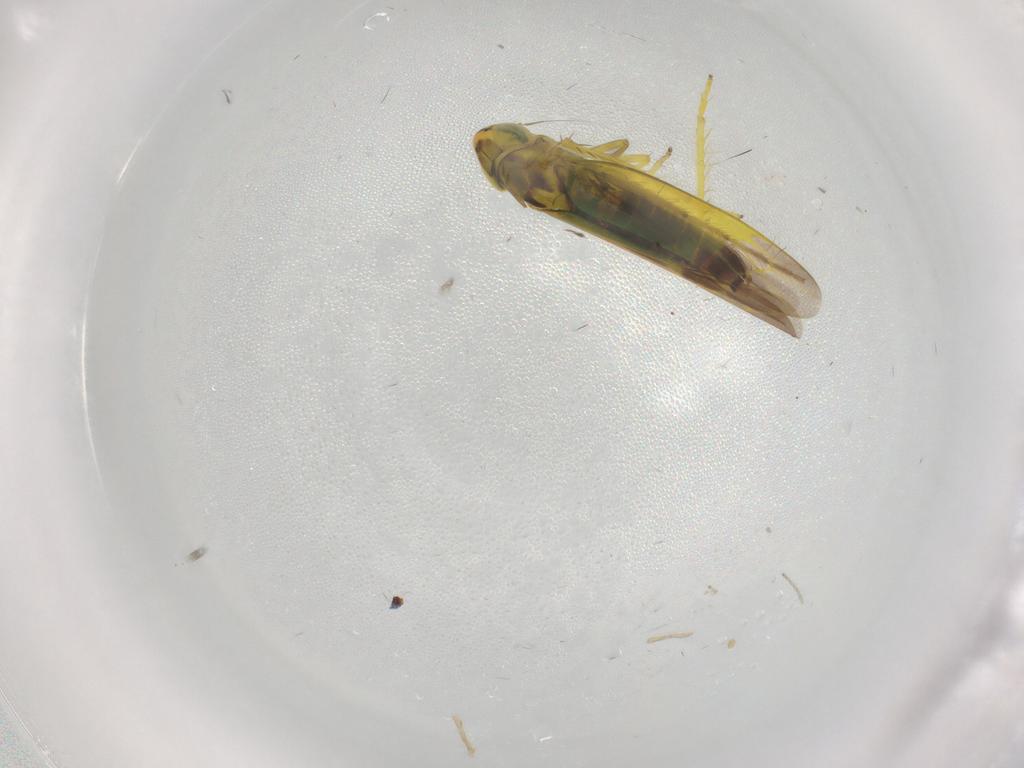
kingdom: Animalia
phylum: Arthropoda
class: Insecta
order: Hemiptera
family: Cicadellidae
